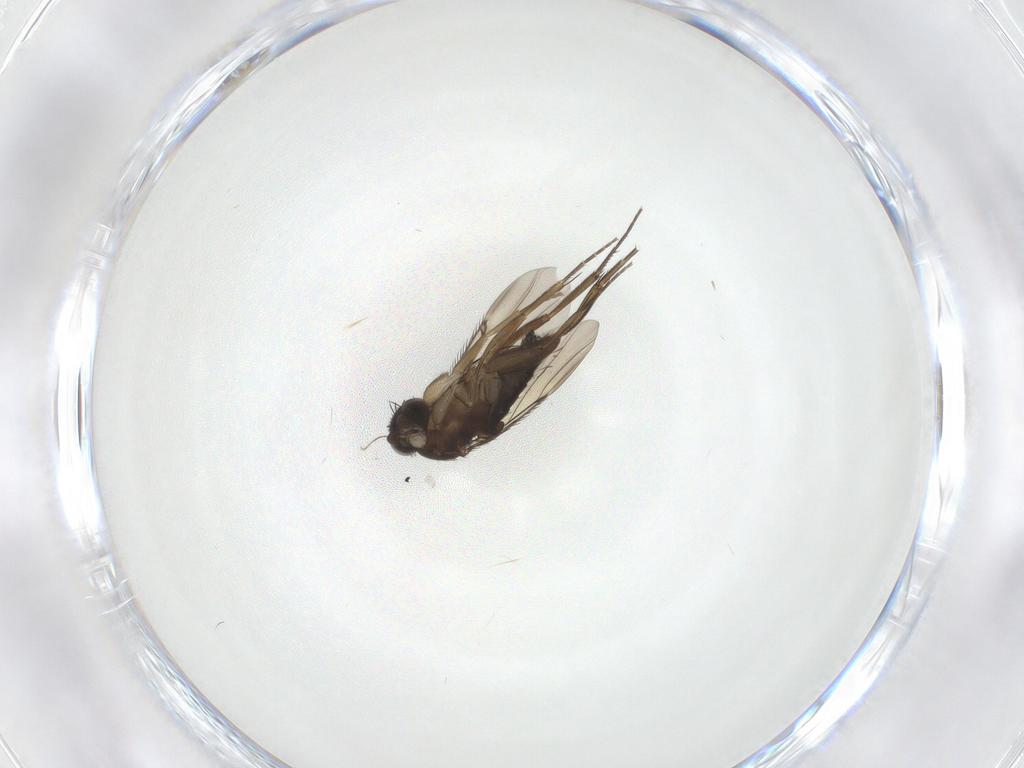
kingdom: Animalia
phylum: Arthropoda
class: Insecta
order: Diptera
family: Phoridae
